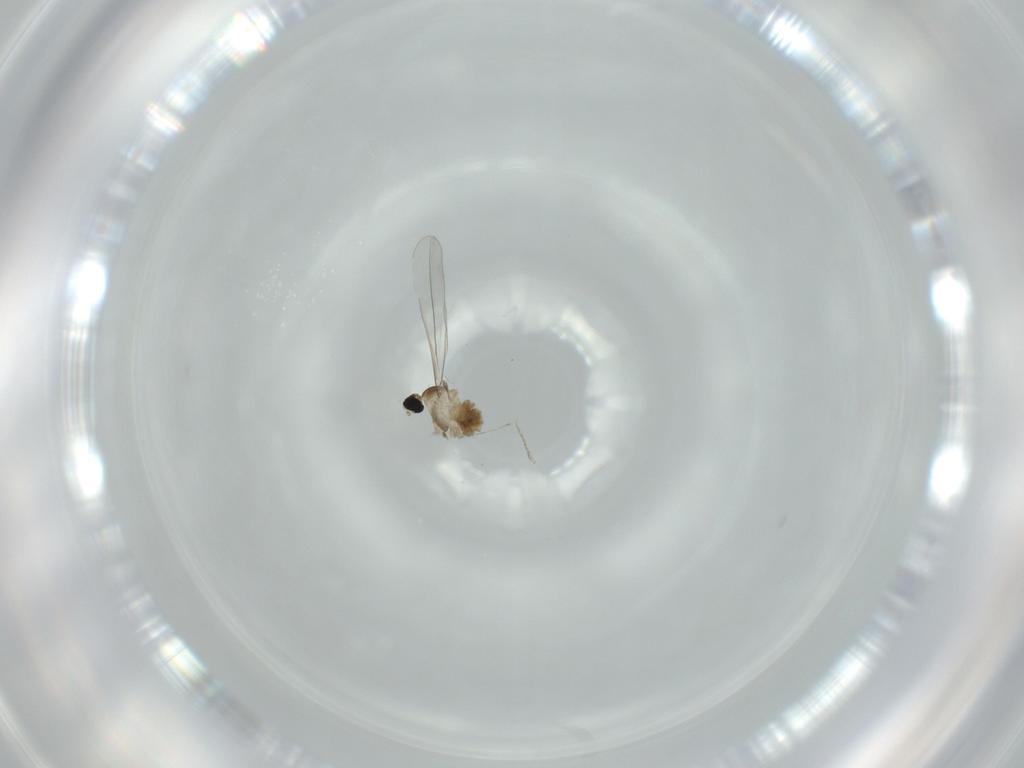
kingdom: Animalia
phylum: Arthropoda
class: Insecta
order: Diptera
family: Cecidomyiidae
